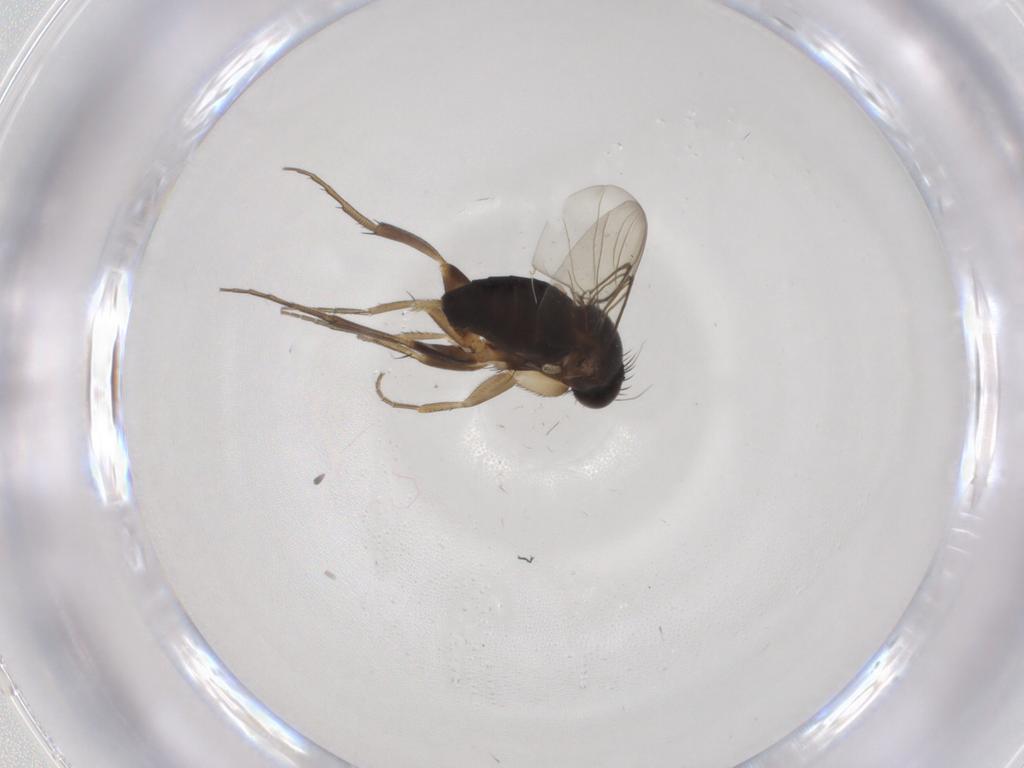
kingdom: Animalia
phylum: Arthropoda
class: Insecta
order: Diptera
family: Phoridae
